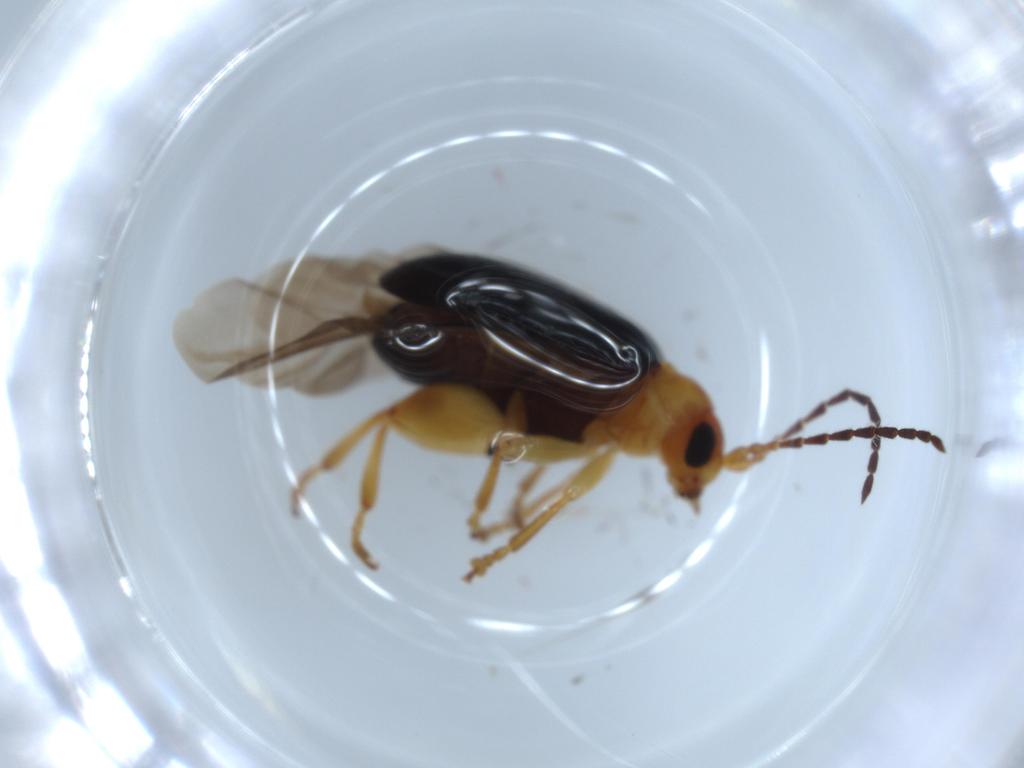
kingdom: Animalia
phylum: Arthropoda
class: Insecta
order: Coleoptera
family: Chrysomelidae
